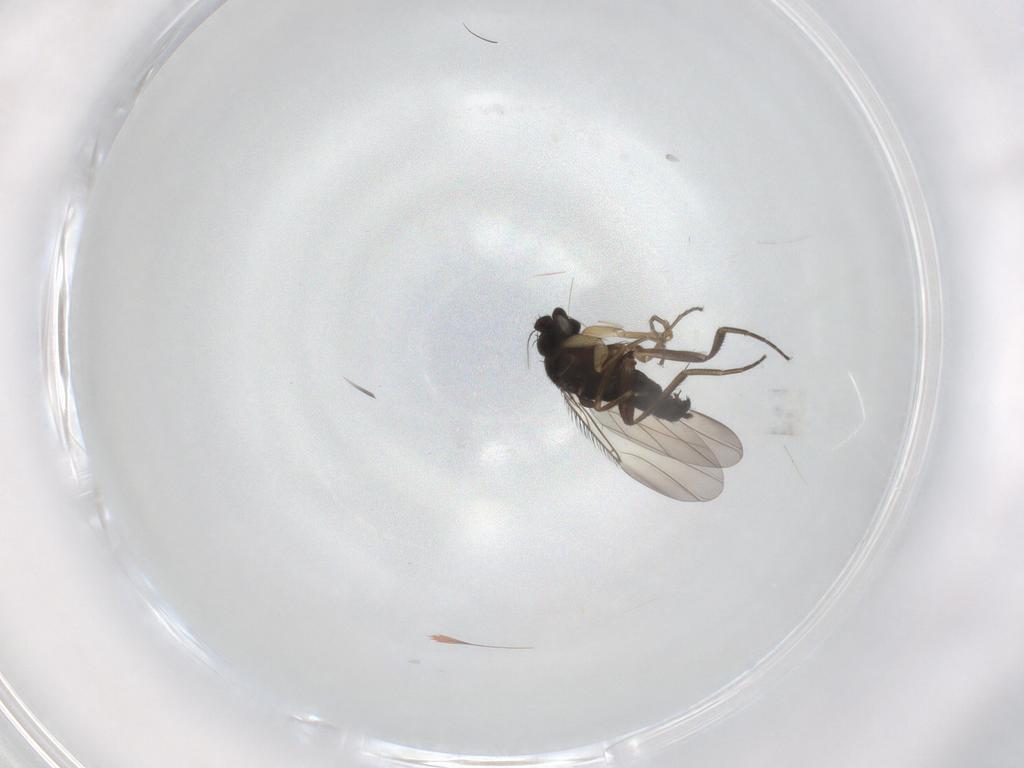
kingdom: Animalia
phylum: Arthropoda
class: Insecta
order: Diptera
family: Phoridae
